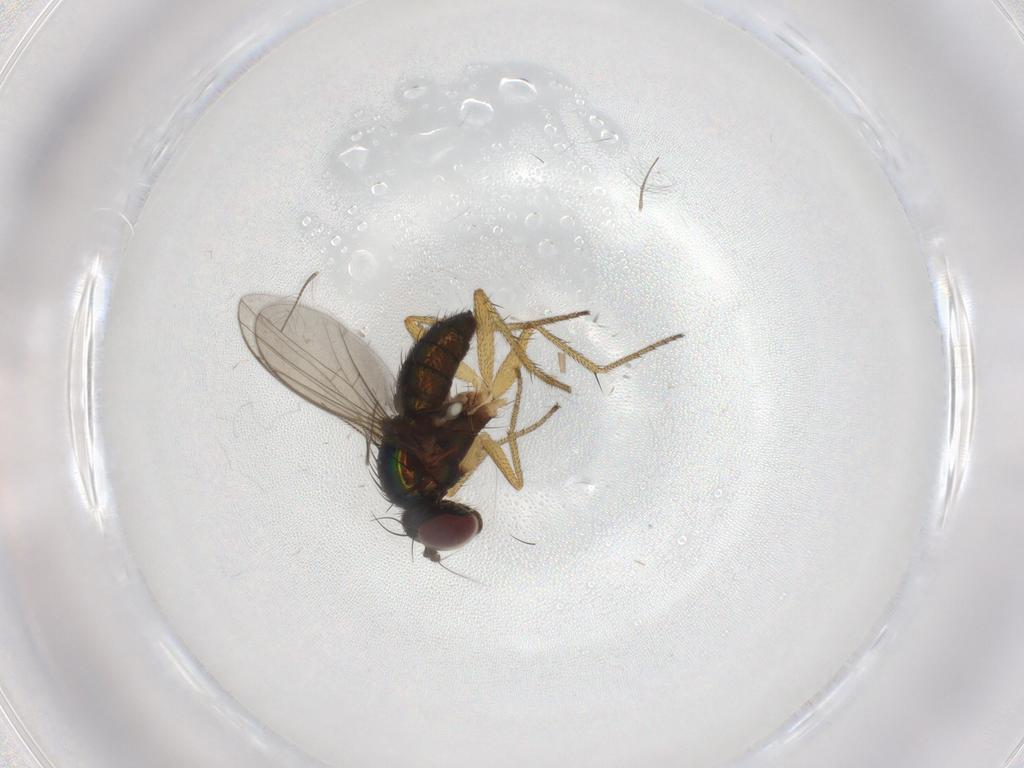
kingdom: Animalia
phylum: Arthropoda
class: Insecta
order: Diptera
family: Chironomidae
